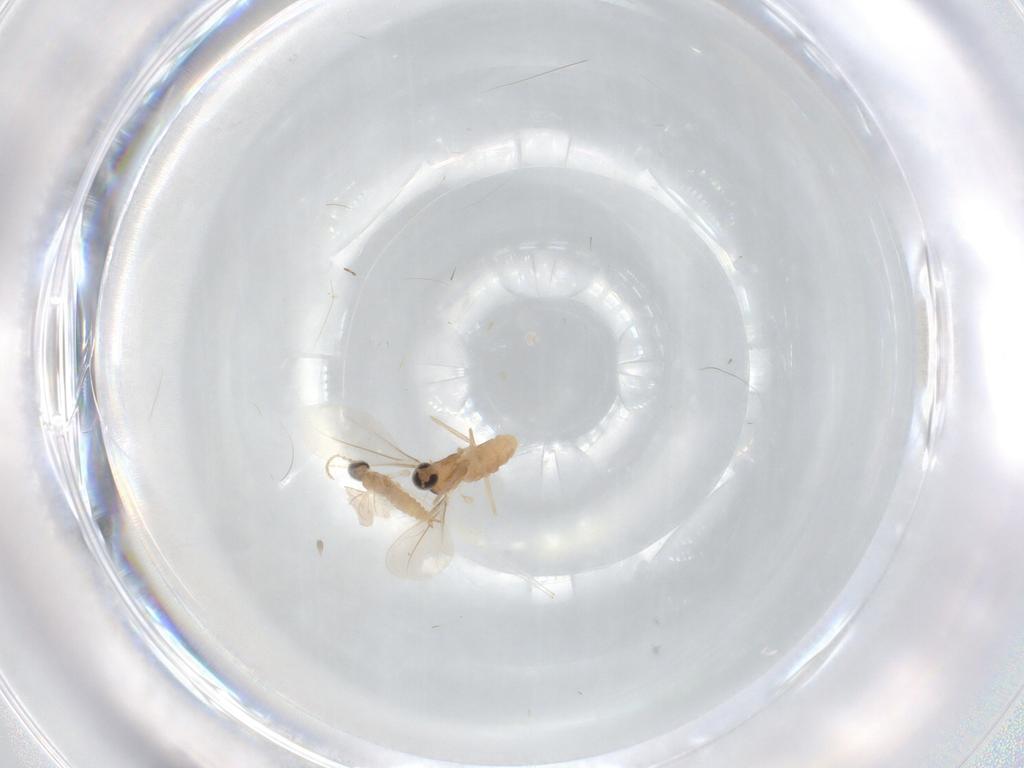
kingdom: Animalia
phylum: Arthropoda
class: Insecta
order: Diptera
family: Cecidomyiidae
